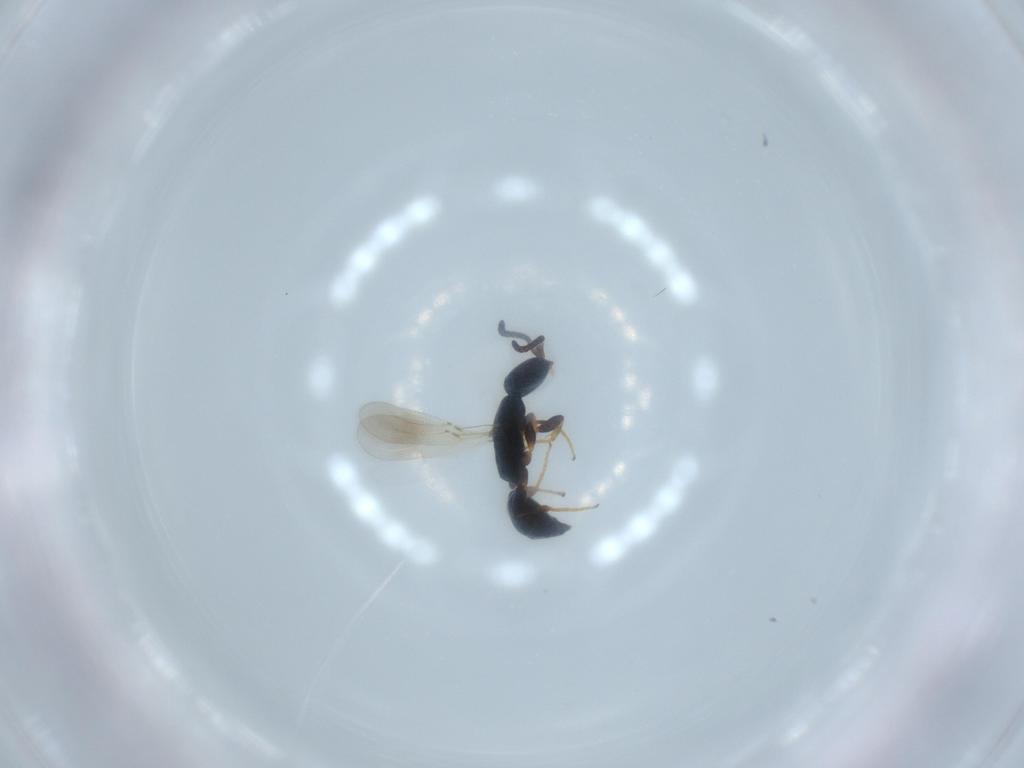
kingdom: Animalia
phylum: Arthropoda
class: Insecta
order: Hymenoptera
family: Bethylidae
